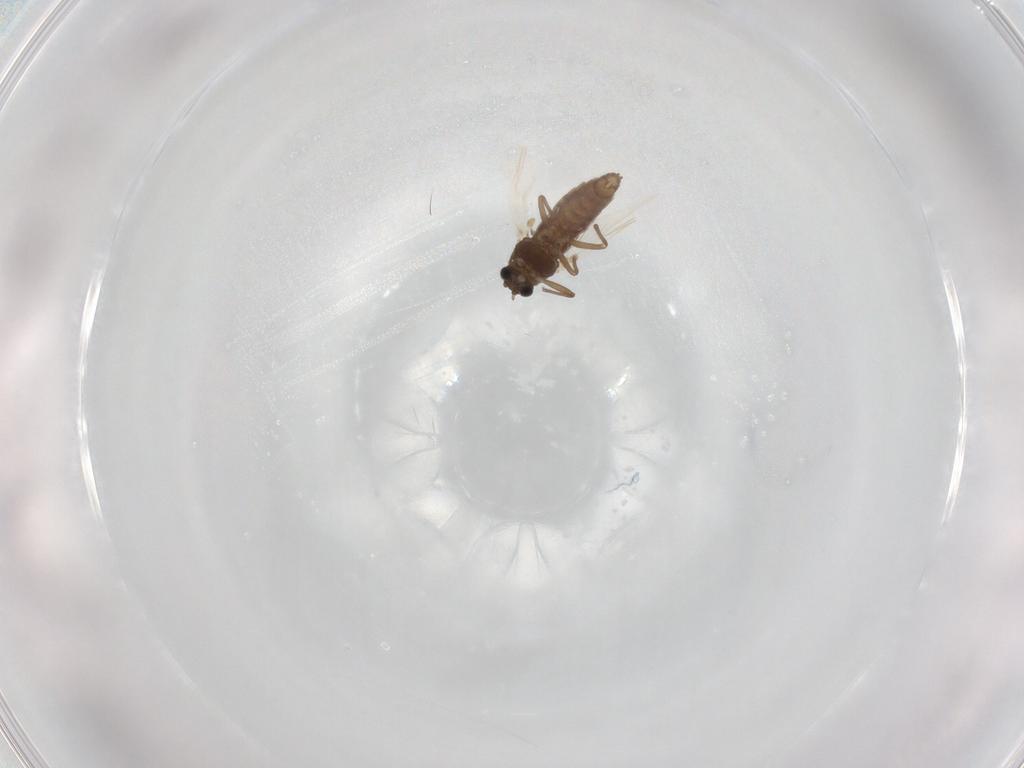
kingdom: Animalia
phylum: Arthropoda
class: Insecta
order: Diptera
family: Chironomidae
